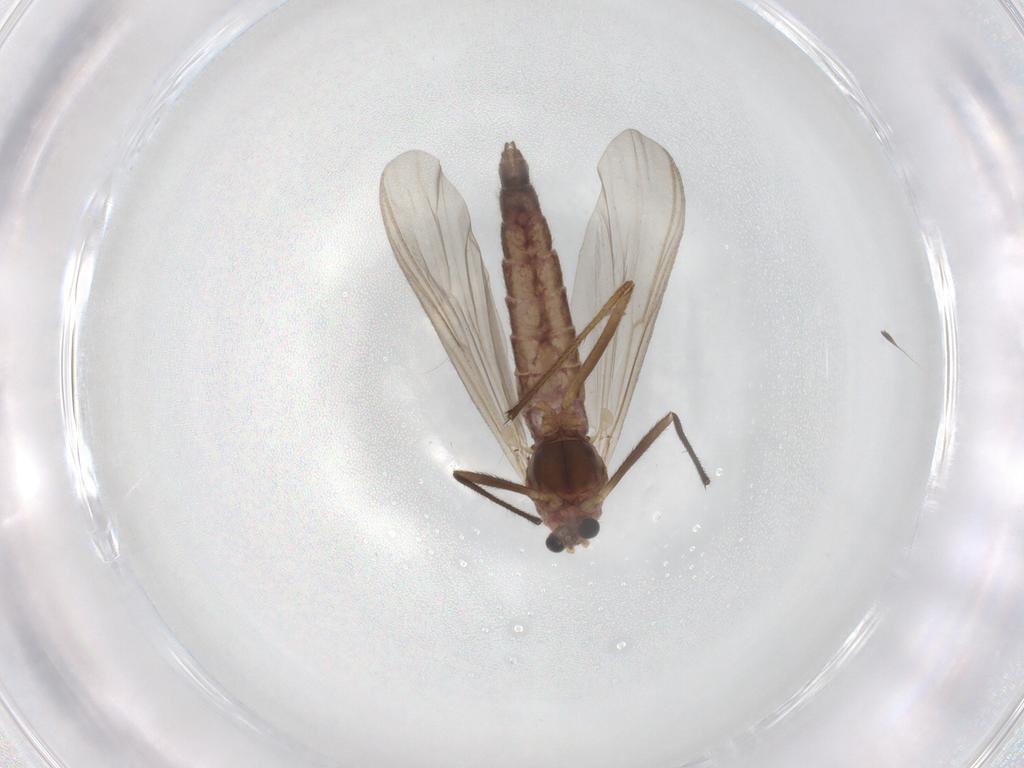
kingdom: Animalia
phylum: Arthropoda
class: Insecta
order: Diptera
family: Chironomidae
